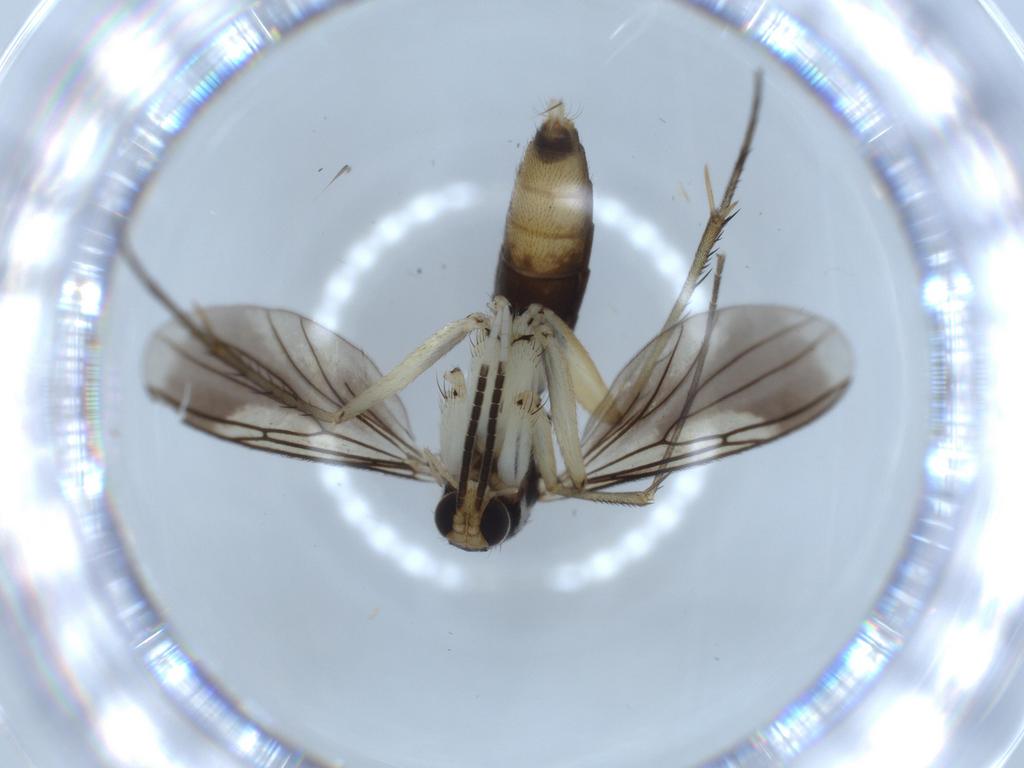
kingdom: Animalia
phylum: Arthropoda
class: Insecta
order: Diptera
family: Mycetophilidae
